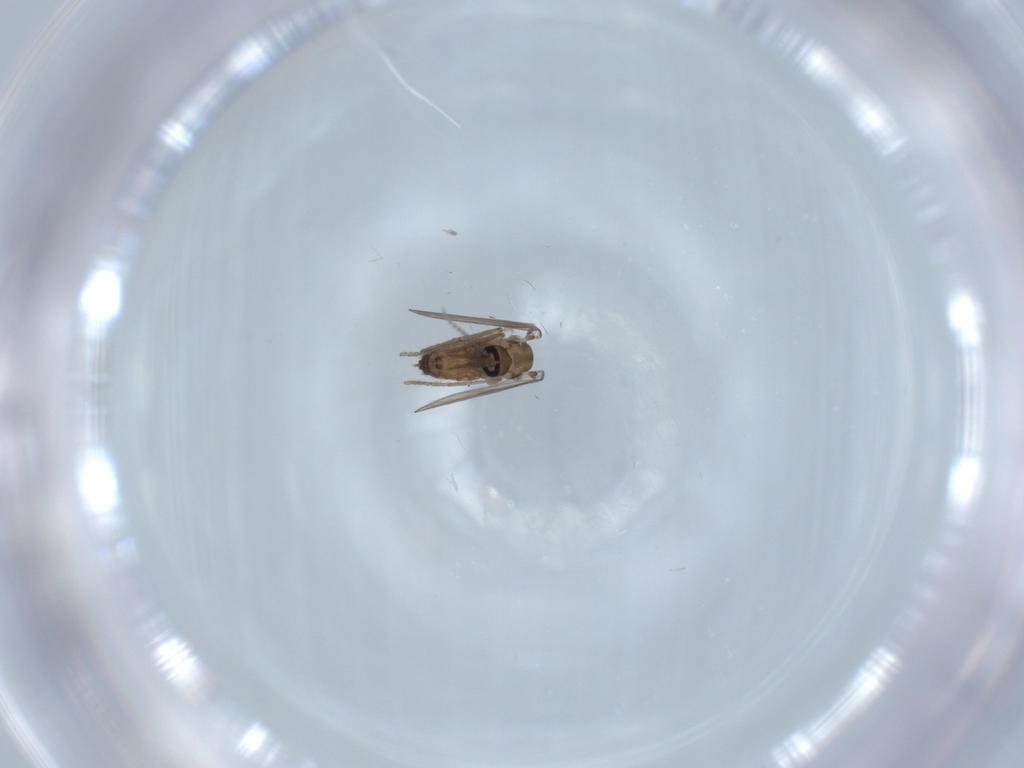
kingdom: Animalia
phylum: Arthropoda
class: Insecta
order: Diptera
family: Psychodidae
